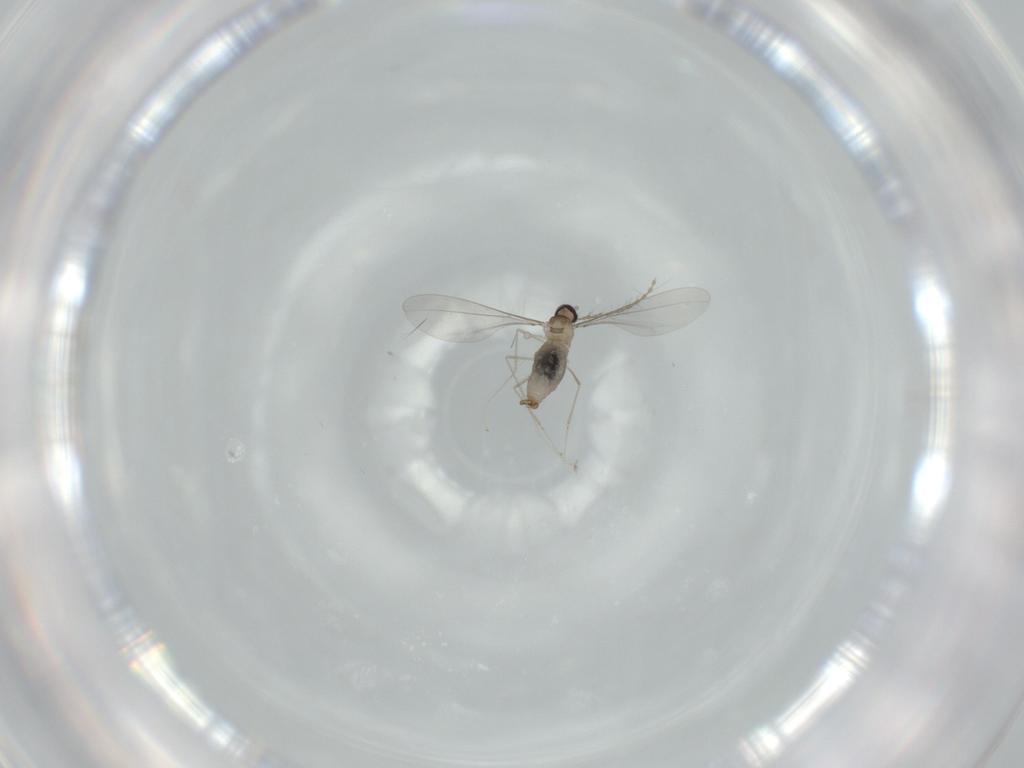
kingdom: Animalia
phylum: Arthropoda
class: Insecta
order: Diptera
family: Cecidomyiidae
